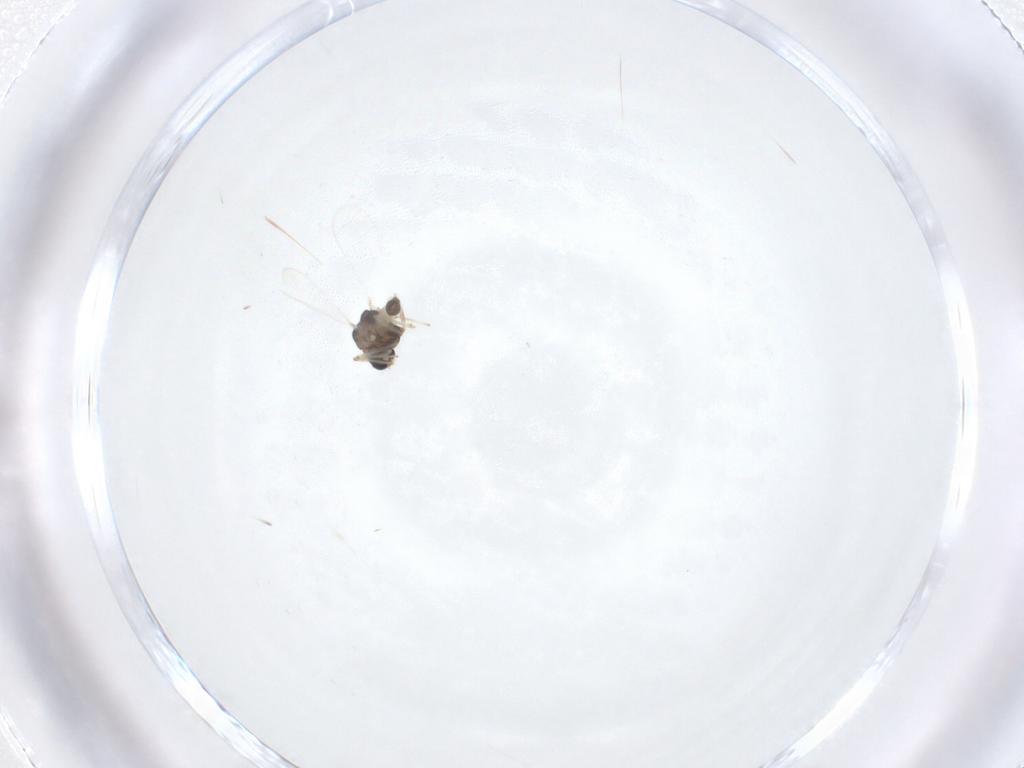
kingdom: Animalia
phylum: Arthropoda
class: Insecta
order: Diptera
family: Chironomidae
